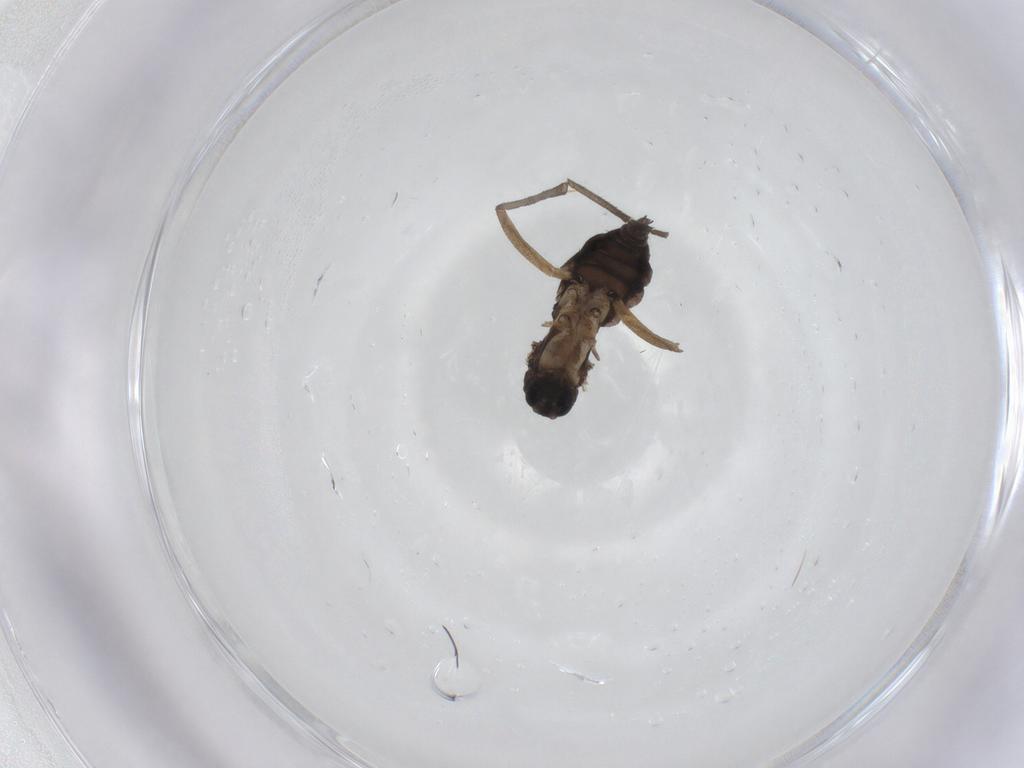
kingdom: Animalia
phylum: Arthropoda
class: Insecta
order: Diptera
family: Sciaridae
